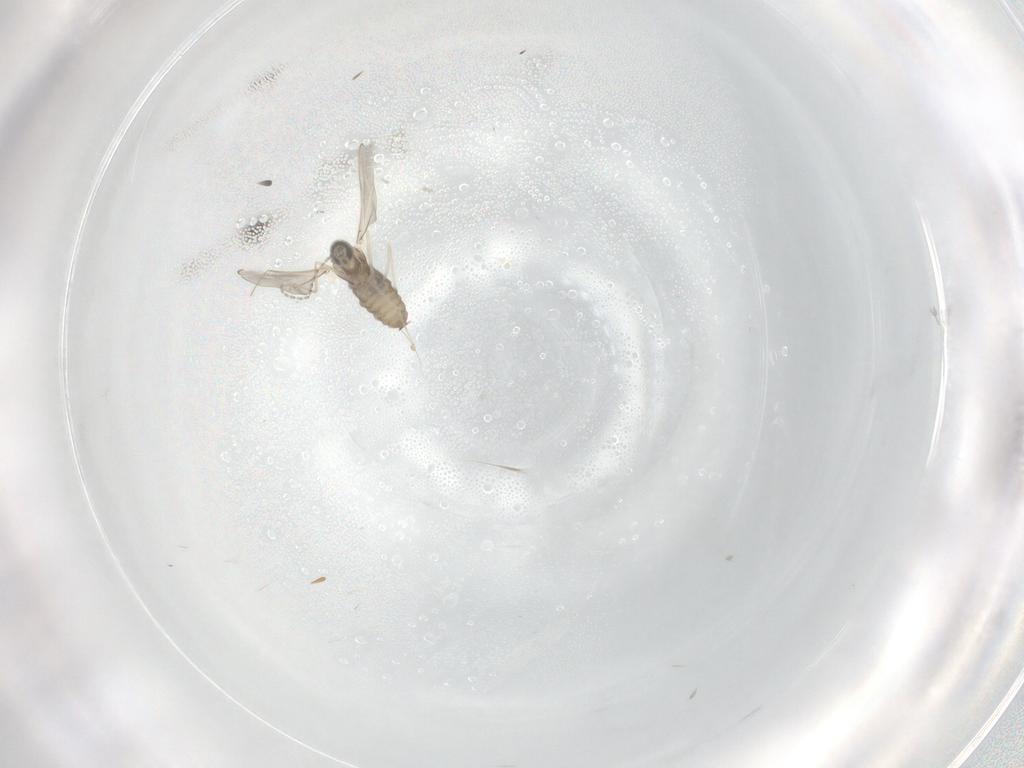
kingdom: Animalia
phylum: Arthropoda
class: Insecta
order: Diptera
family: Cecidomyiidae
